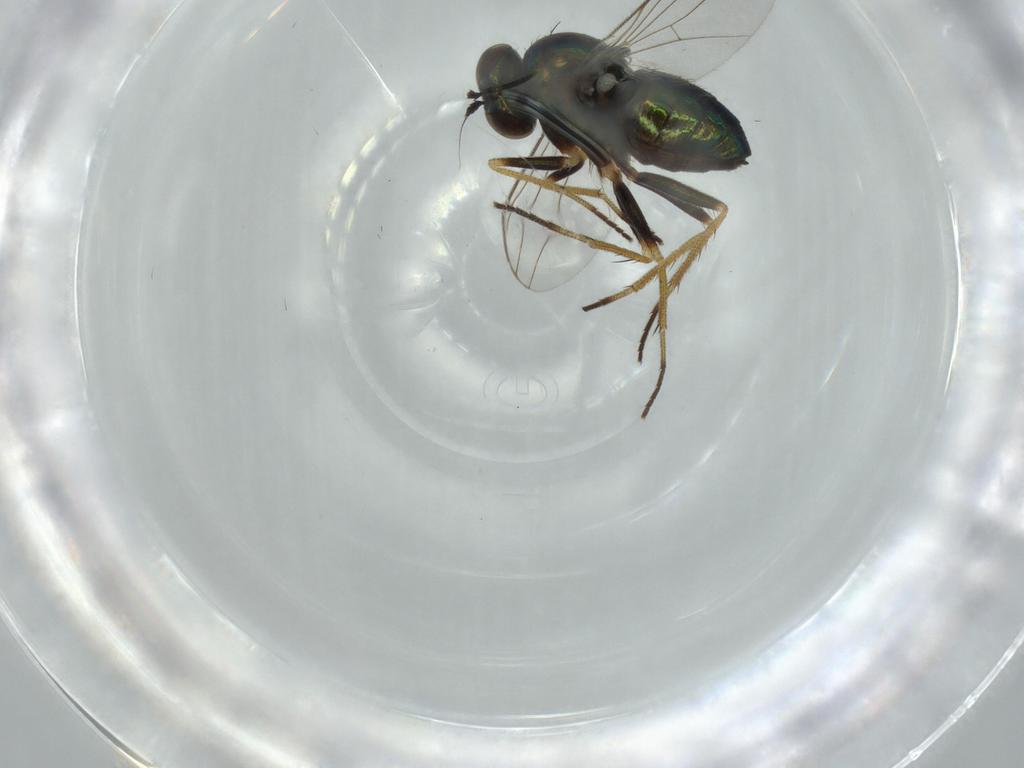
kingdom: Animalia
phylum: Arthropoda
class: Insecta
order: Diptera
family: Dolichopodidae
